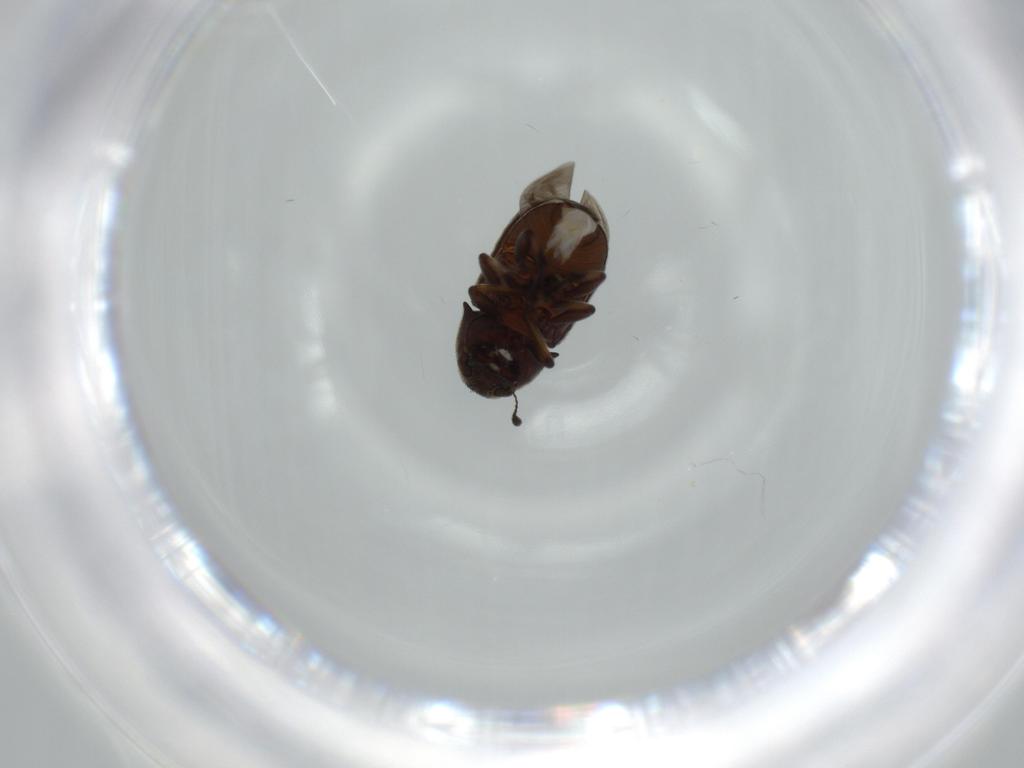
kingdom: Animalia
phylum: Arthropoda
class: Insecta
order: Coleoptera
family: Anthribidae
